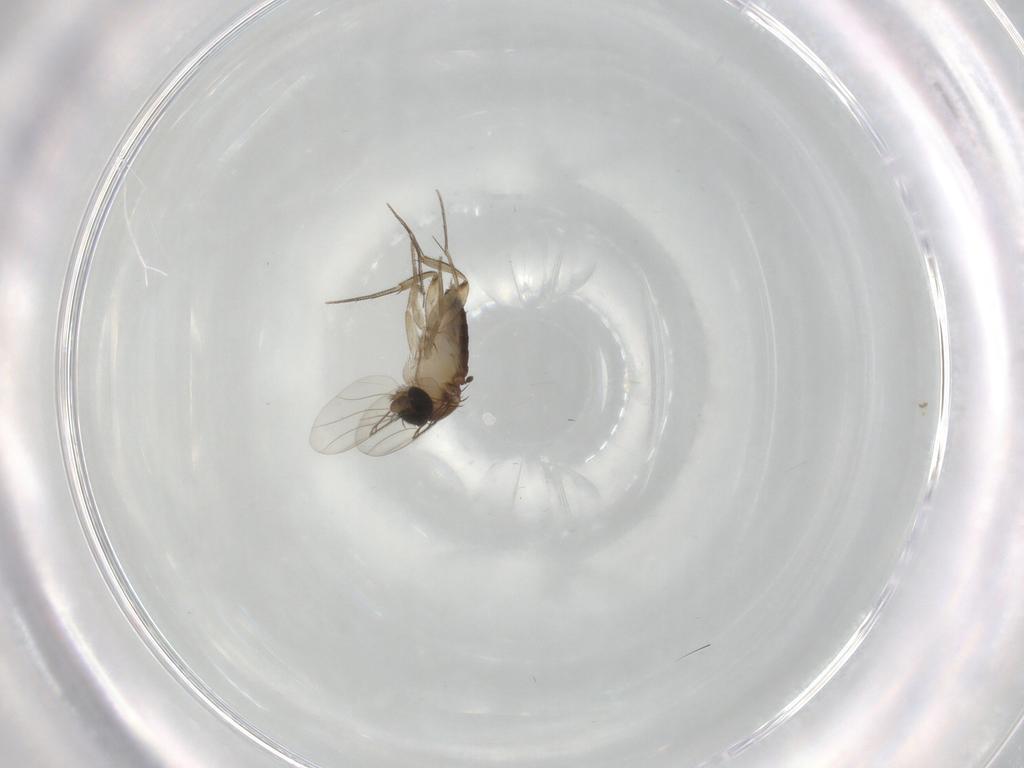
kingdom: Animalia
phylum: Arthropoda
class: Insecta
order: Diptera
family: Phoridae
